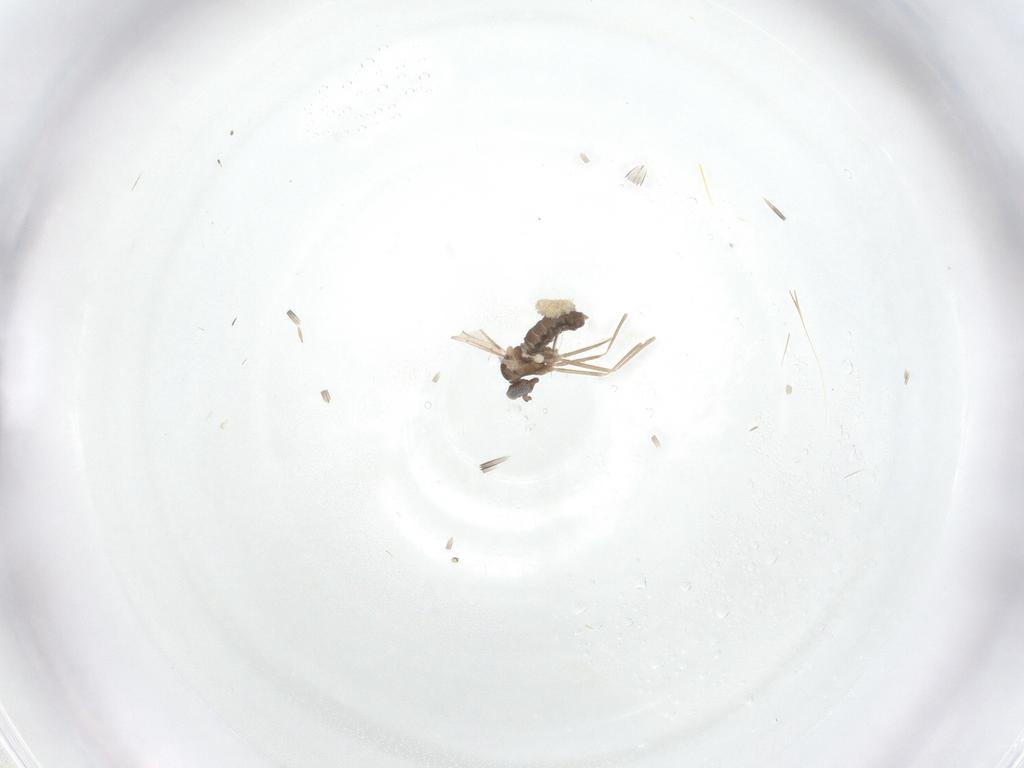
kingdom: Animalia
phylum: Arthropoda
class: Insecta
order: Diptera
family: Cecidomyiidae
